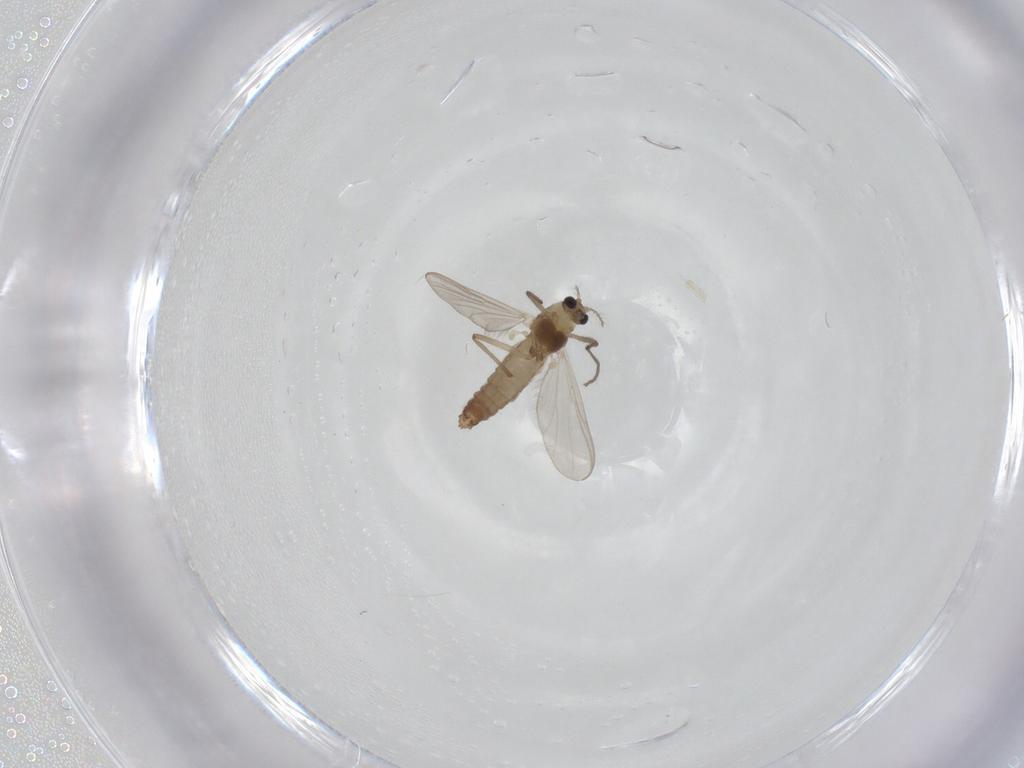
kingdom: Animalia
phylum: Arthropoda
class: Insecta
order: Diptera
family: Chironomidae
